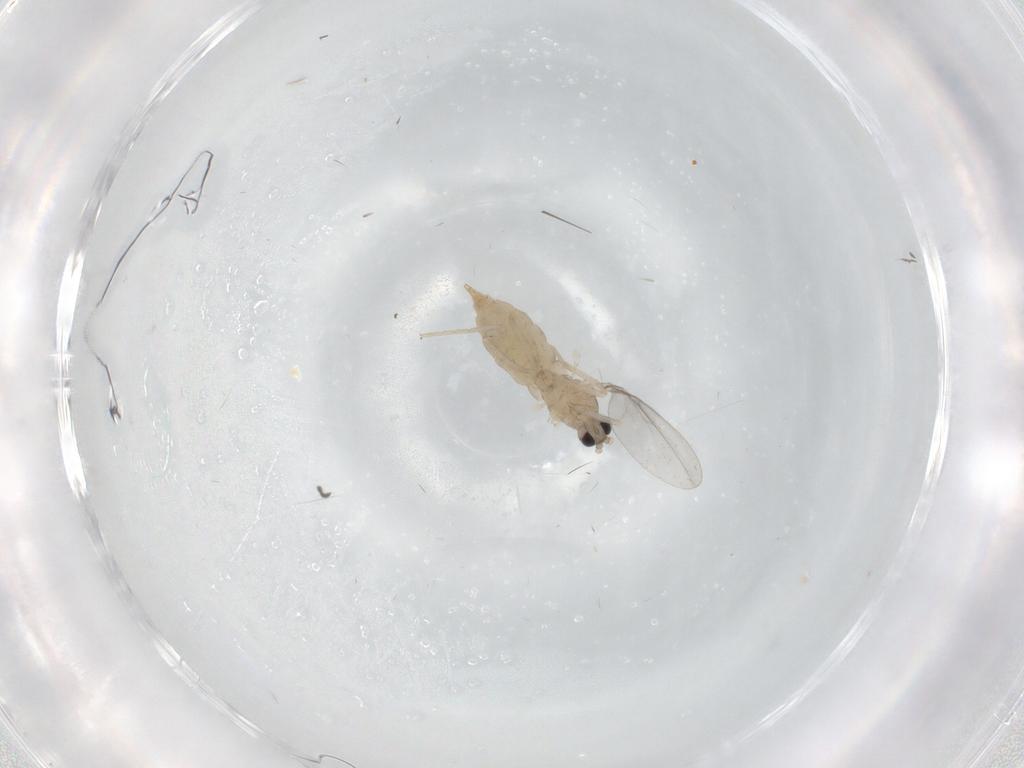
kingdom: Animalia
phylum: Arthropoda
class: Insecta
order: Diptera
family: Cecidomyiidae
